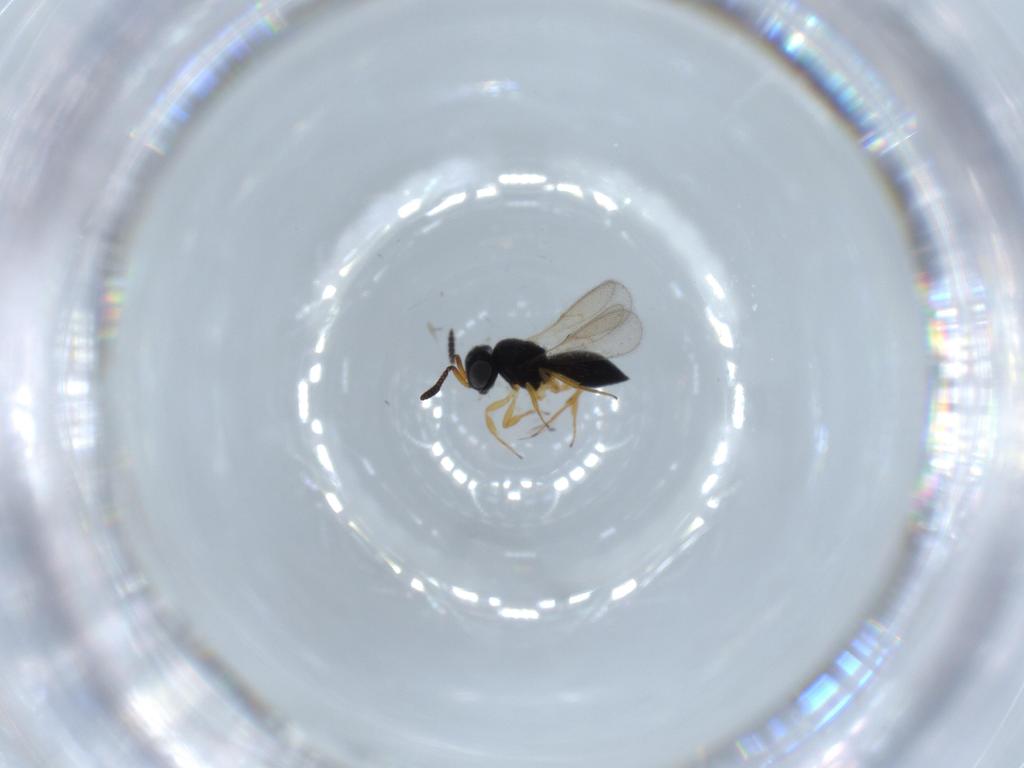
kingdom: Animalia
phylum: Arthropoda
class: Insecta
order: Hymenoptera
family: Scelionidae
